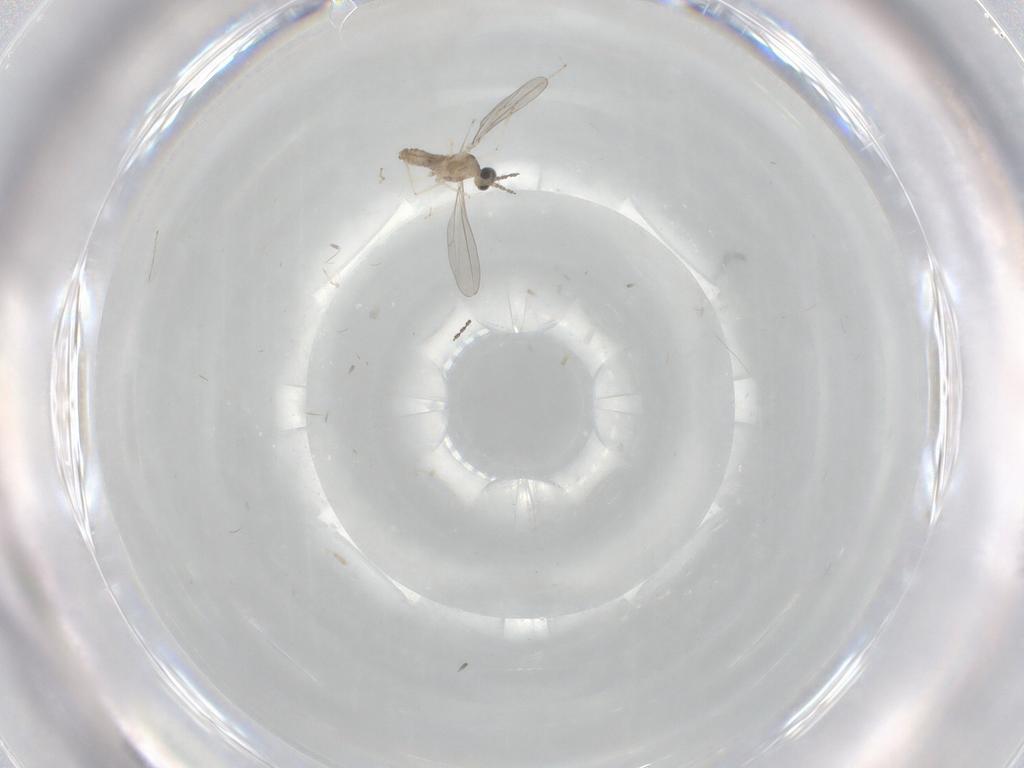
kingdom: Animalia
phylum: Arthropoda
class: Insecta
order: Diptera
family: Cecidomyiidae
